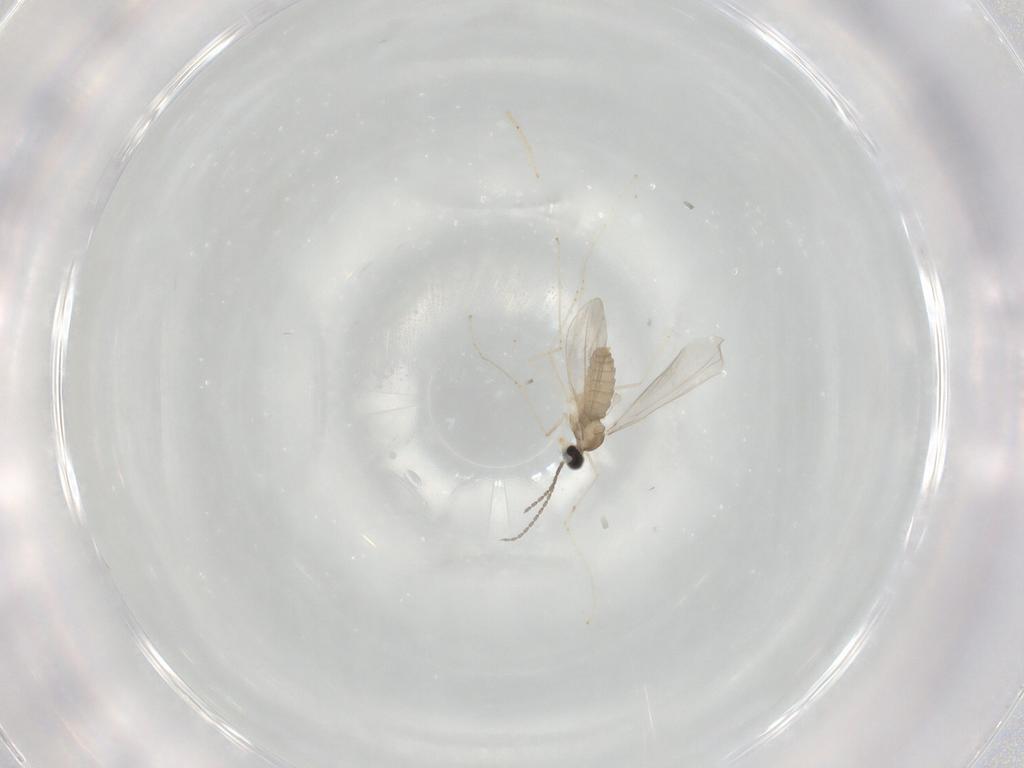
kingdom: Animalia
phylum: Arthropoda
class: Insecta
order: Diptera
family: Cecidomyiidae
